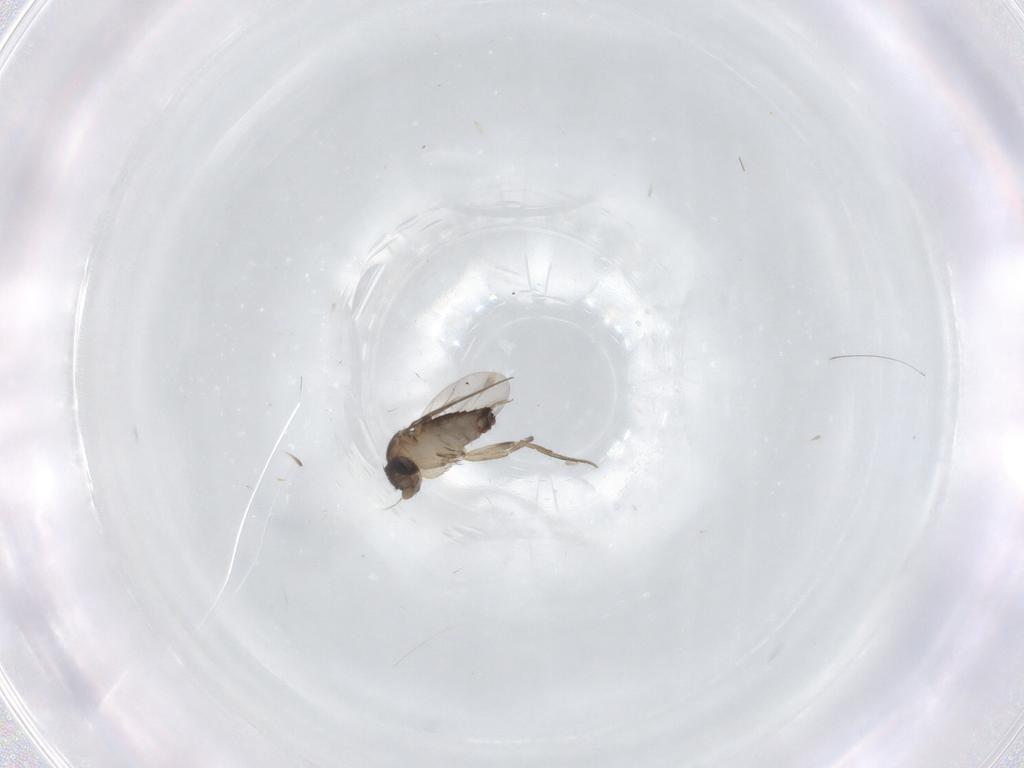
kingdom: Animalia
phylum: Arthropoda
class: Insecta
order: Diptera
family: Phoridae
